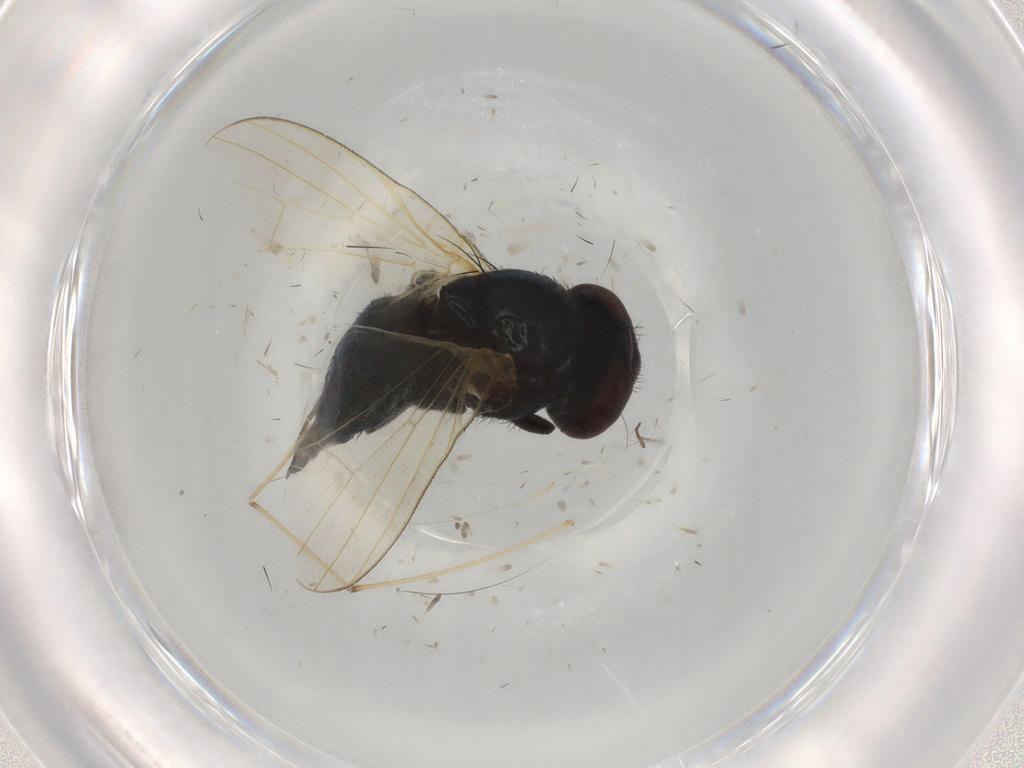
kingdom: Animalia
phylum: Arthropoda
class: Insecta
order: Diptera
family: Lonchaeidae
